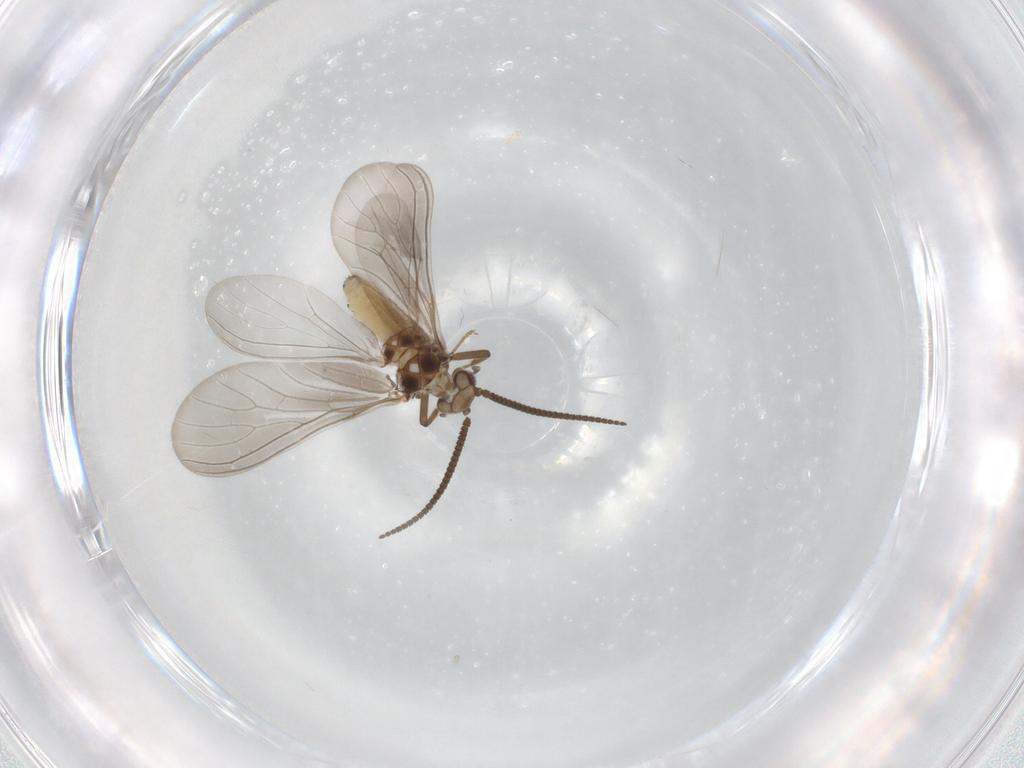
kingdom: Animalia
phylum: Arthropoda
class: Insecta
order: Neuroptera
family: Coniopterygidae
